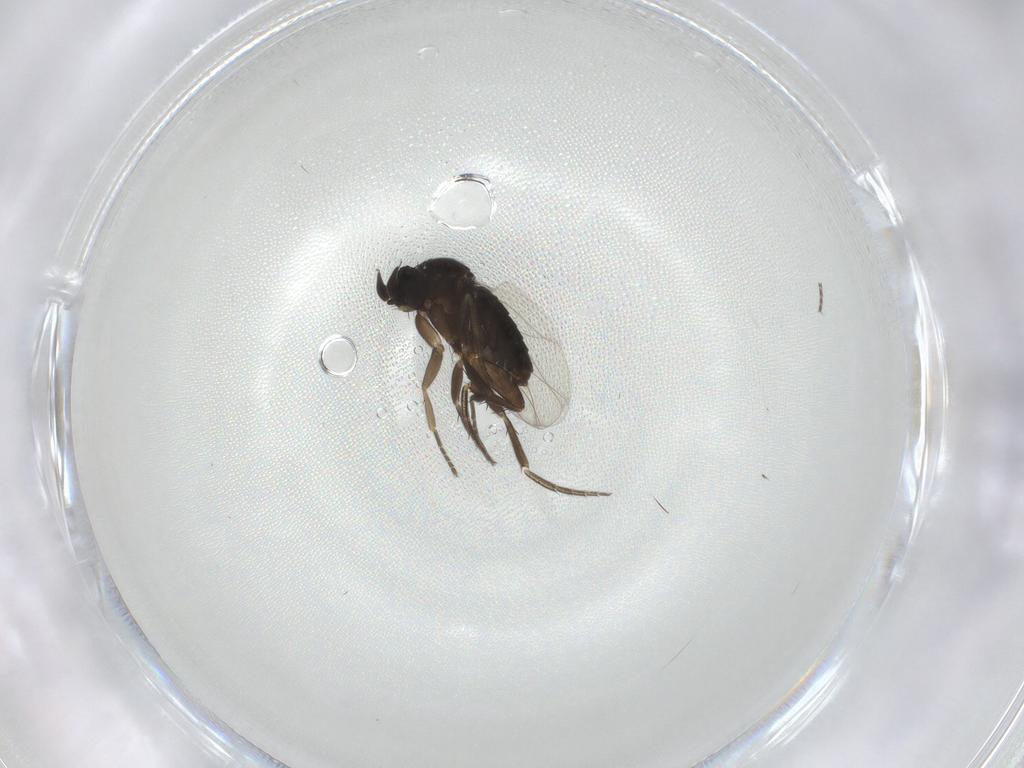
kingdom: Animalia
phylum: Arthropoda
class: Insecta
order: Diptera
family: Phoridae
